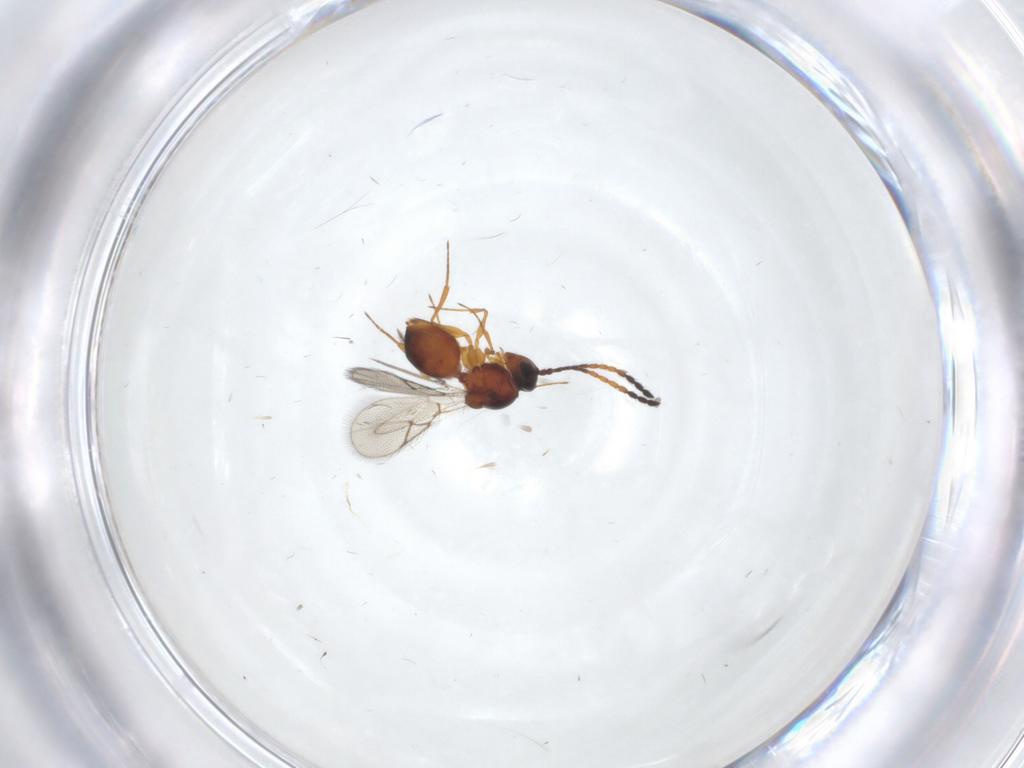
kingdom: Animalia
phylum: Arthropoda
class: Insecta
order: Hymenoptera
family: Figitidae
